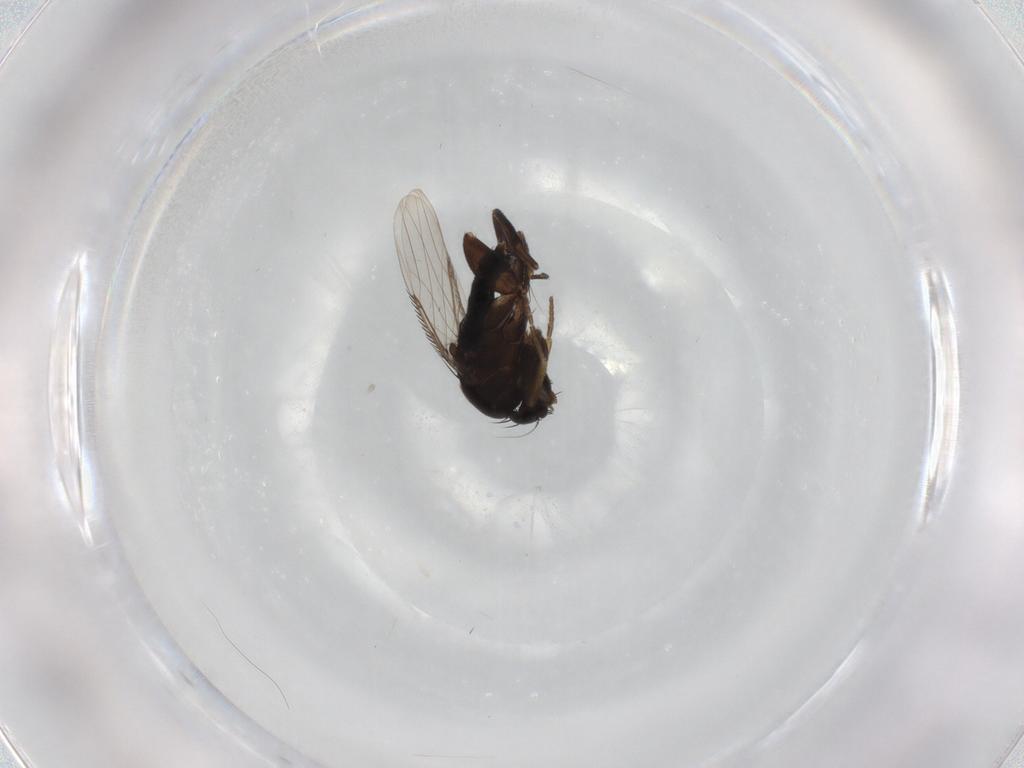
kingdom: Animalia
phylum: Arthropoda
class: Insecta
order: Diptera
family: Phoridae
